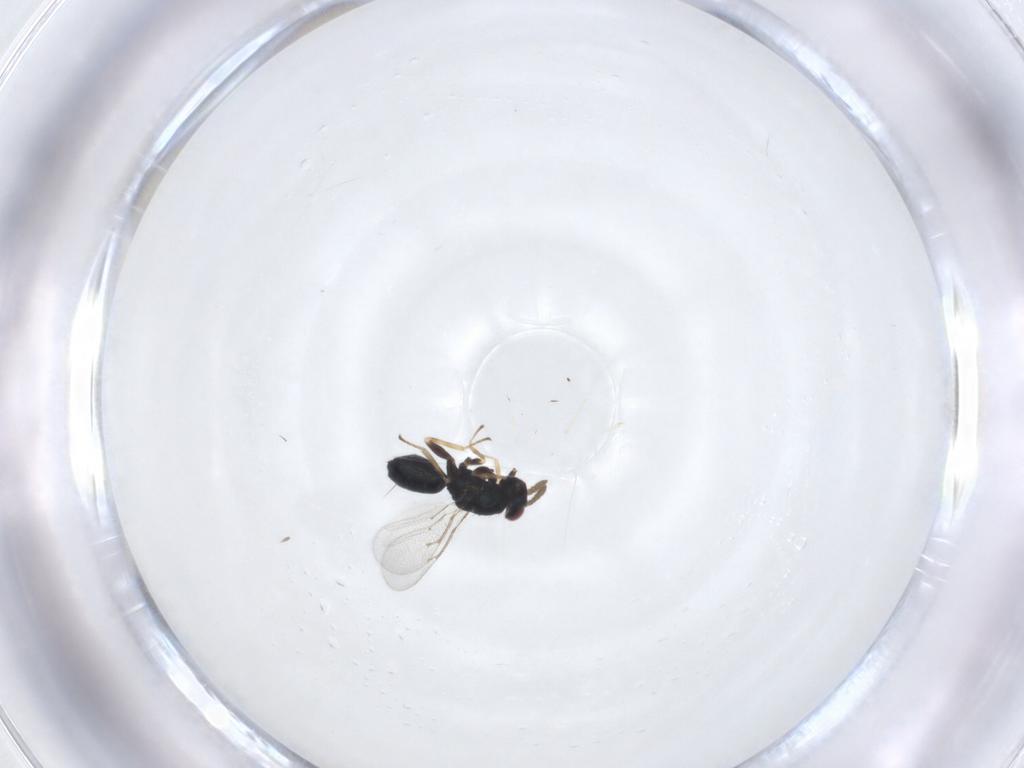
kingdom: Animalia
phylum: Arthropoda
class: Insecta
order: Hymenoptera
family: Eulophidae
